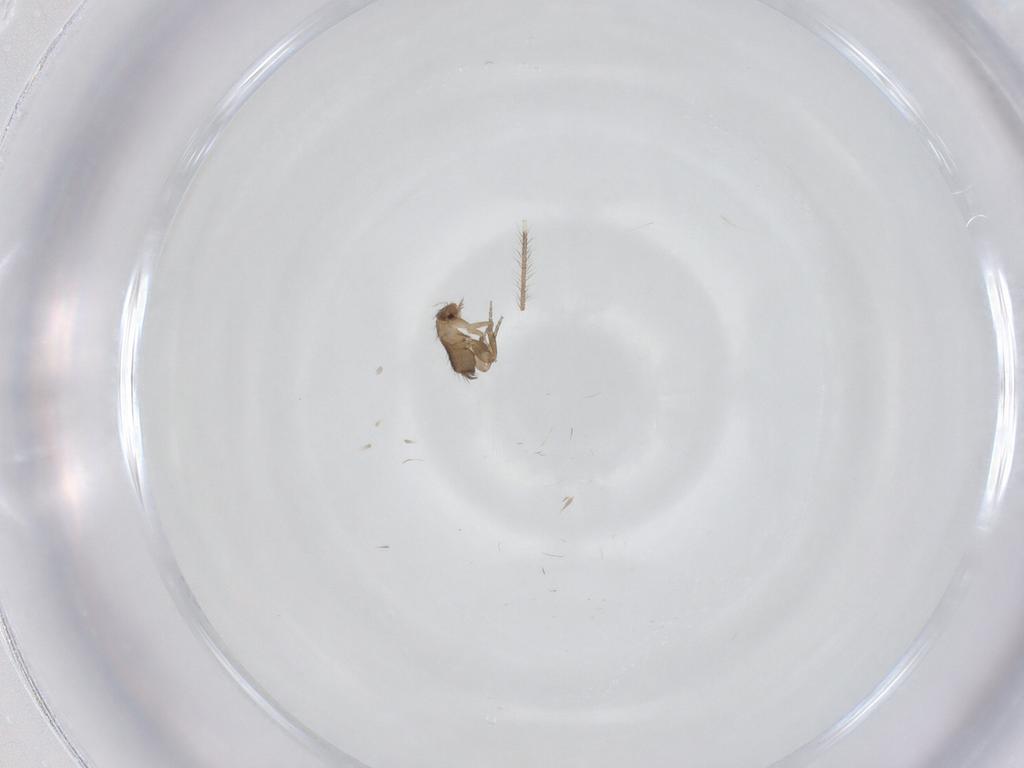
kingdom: Animalia
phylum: Arthropoda
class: Insecta
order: Diptera
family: Phoridae
